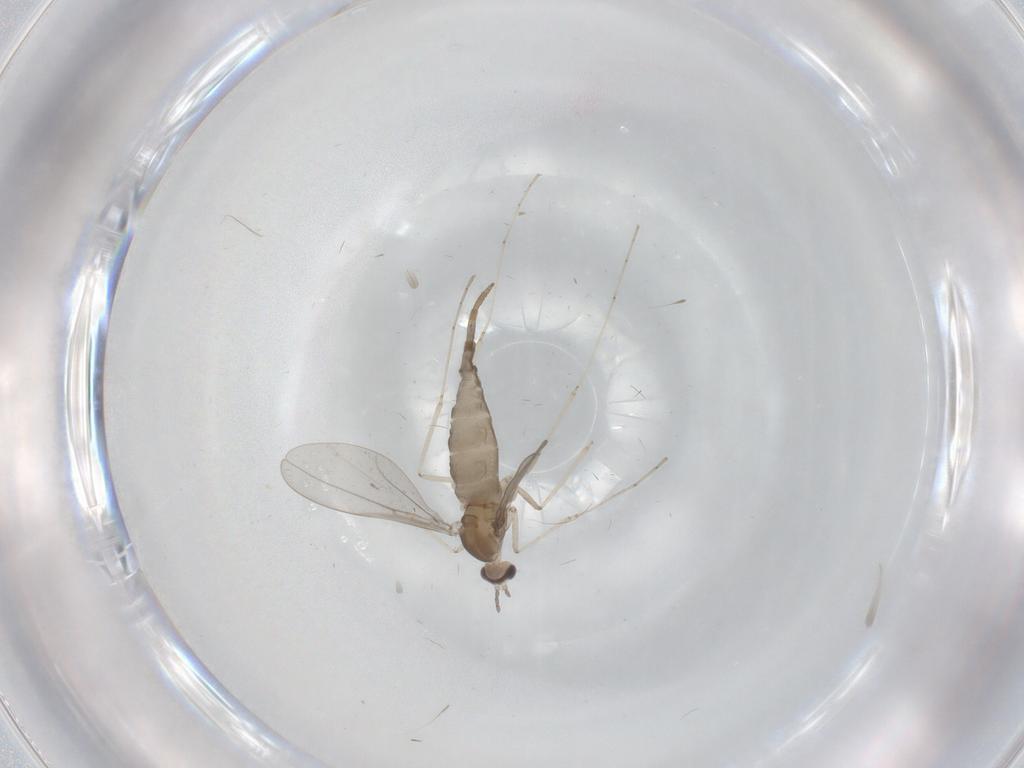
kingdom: Animalia
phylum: Arthropoda
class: Insecta
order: Diptera
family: Cecidomyiidae
